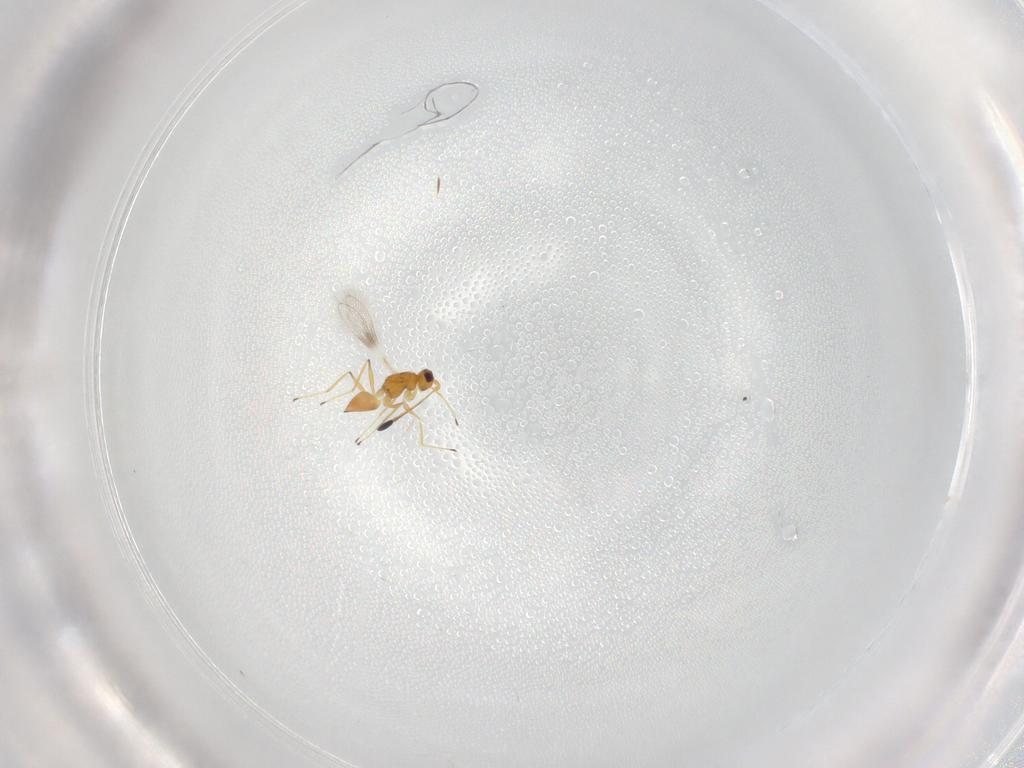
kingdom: Animalia
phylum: Arthropoda
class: Insecta
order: Hymenoptera
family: Mymaridae
